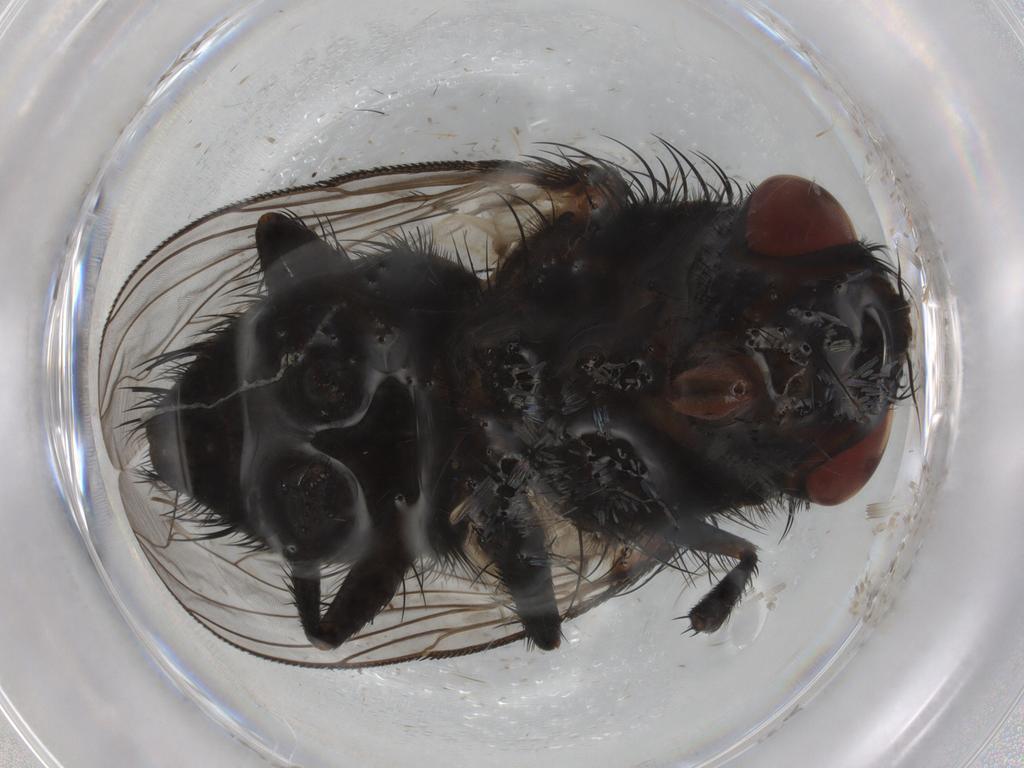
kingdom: Animalia
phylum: Arthropoda
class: Insecta
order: Diptera
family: Tachinidae
